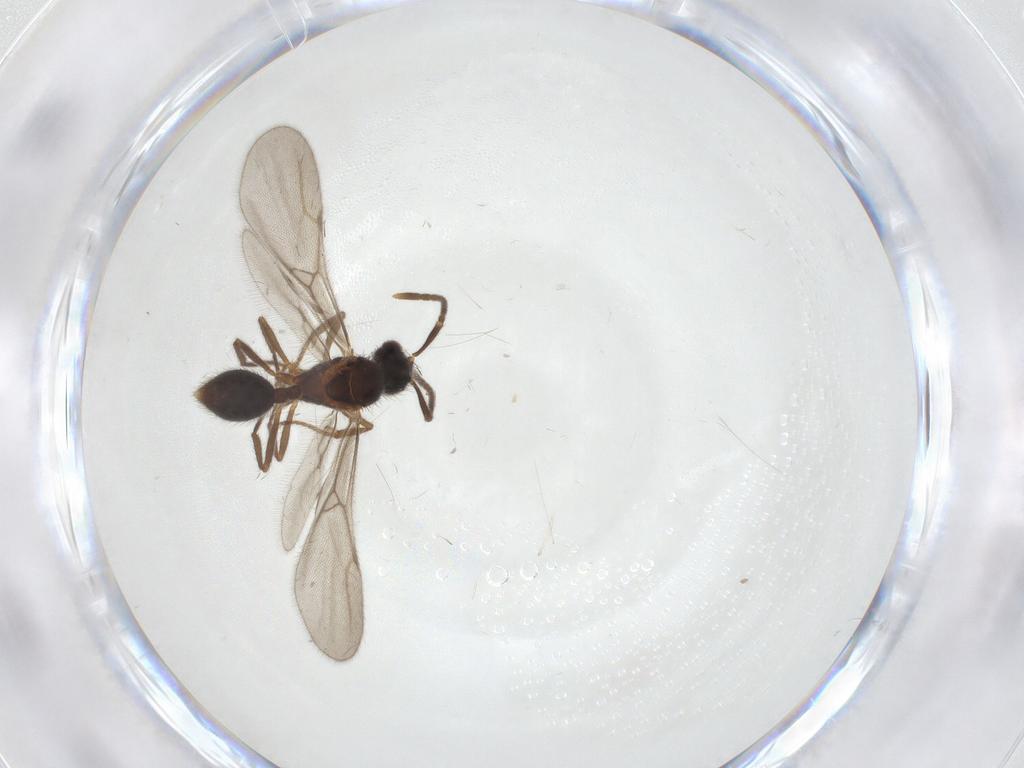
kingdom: Animalia
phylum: Arthropoda
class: Insecta
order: Hymenoptera
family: Formicidae
